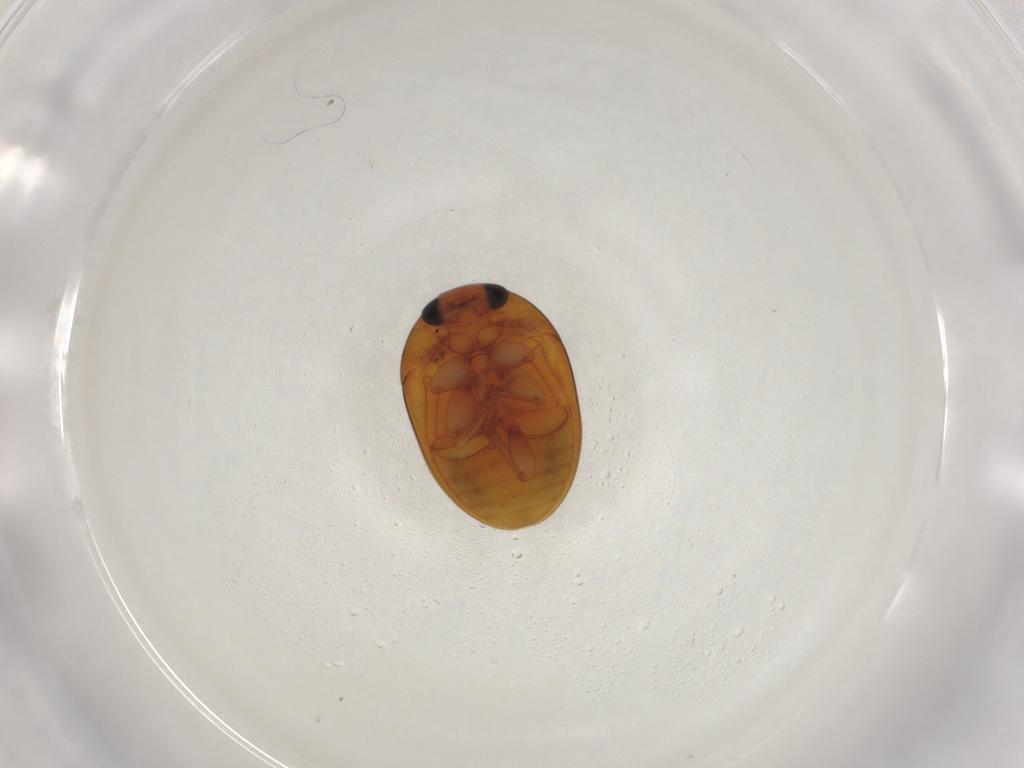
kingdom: Animalia
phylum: Arthropoda
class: Insecta
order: Coleoptera
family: Phalacridae
